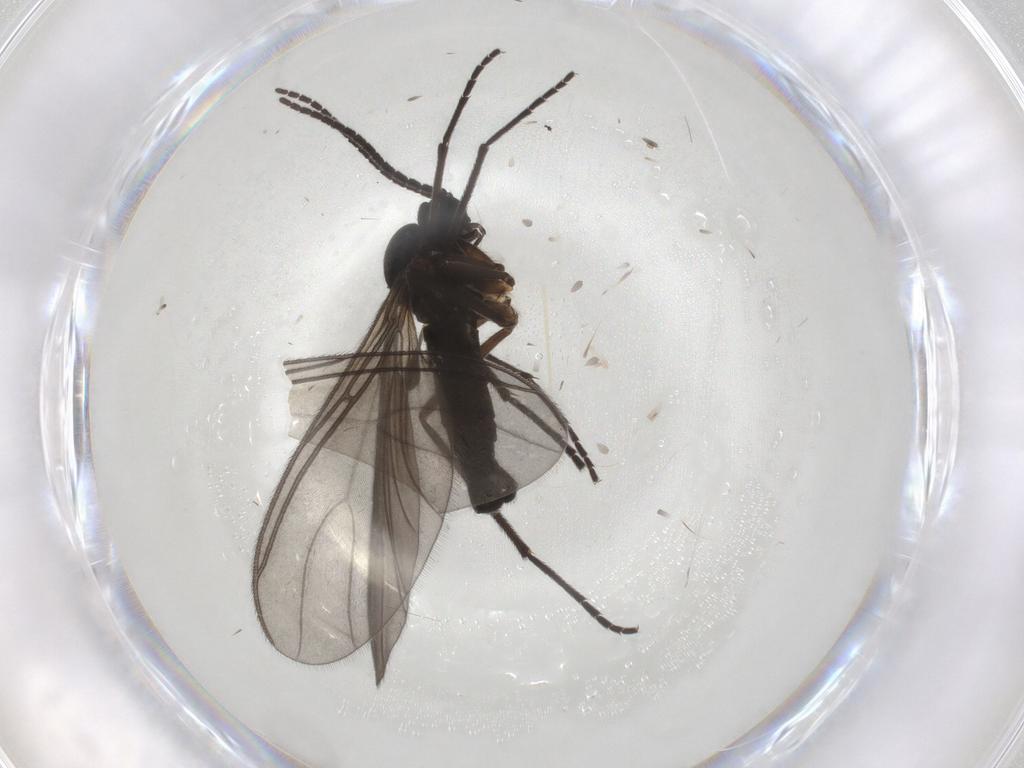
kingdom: Animalia
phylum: Arthropoda
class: Insecta
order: Diptera
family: Sciaridae
